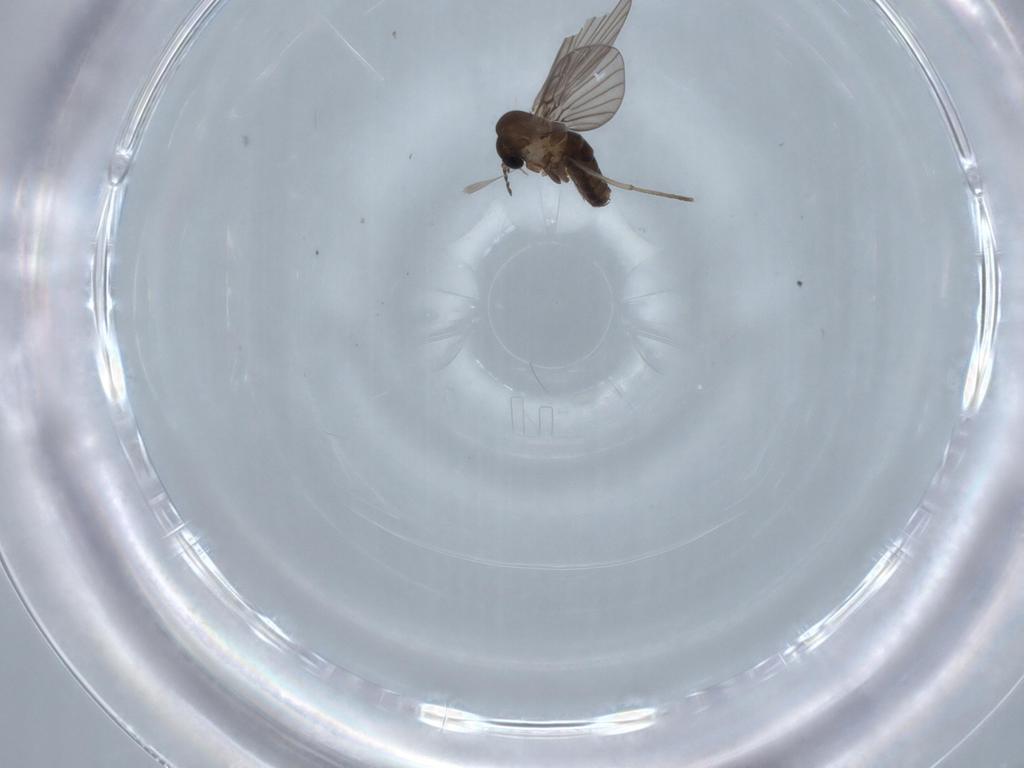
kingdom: Animalia
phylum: Arthropoda
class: Insecta
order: Diptera
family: Psychodidae
